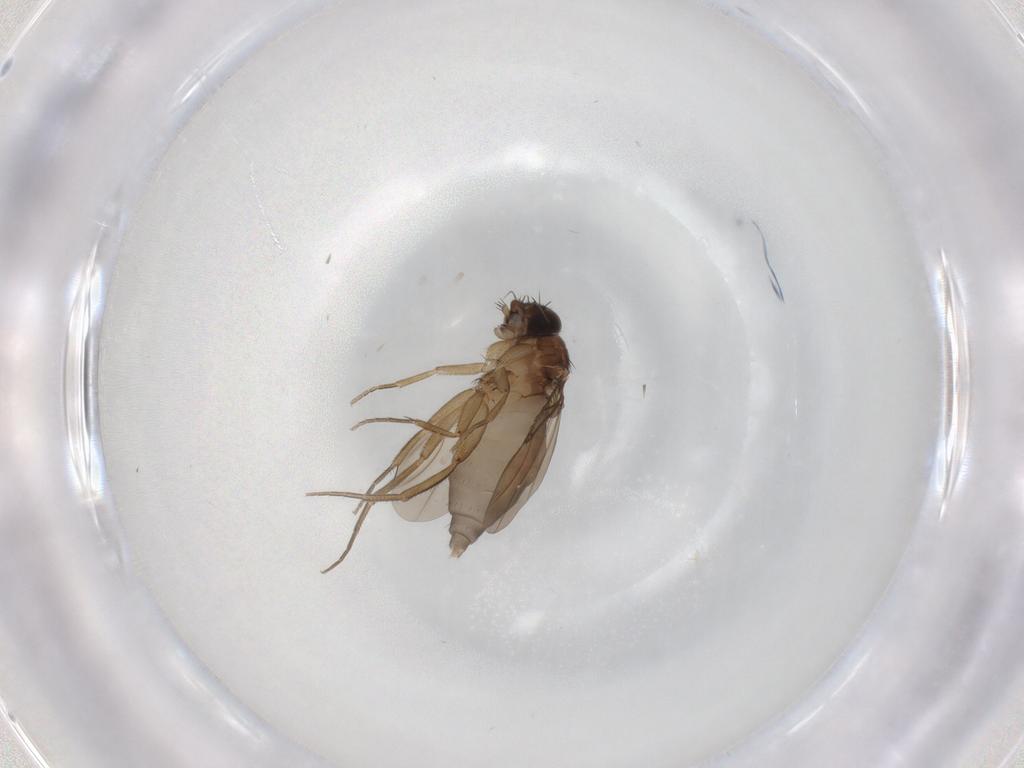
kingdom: Animalia
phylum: Arthropoda
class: Insecta
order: Diptera
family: Phoridae
